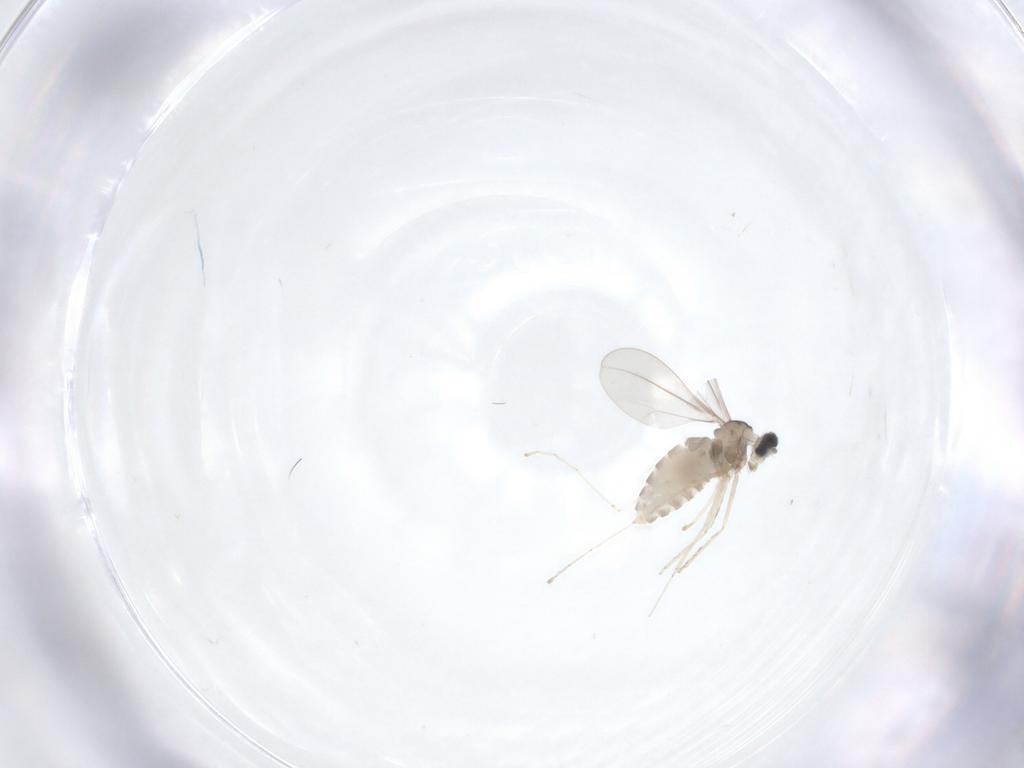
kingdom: Animalia
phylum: Arthropoda
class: Insecta
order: Diptera
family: Cecidomyiidae
